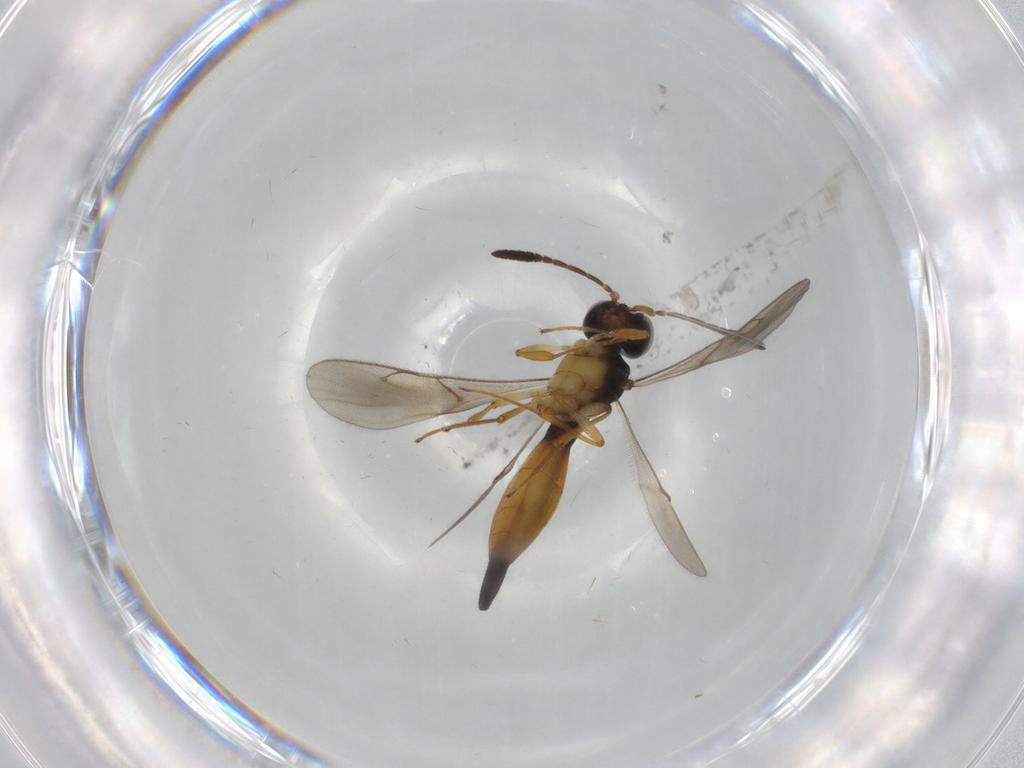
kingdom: Animalia
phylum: Arthropoda
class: Insecta
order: Hymenoptera
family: Scelionidae
